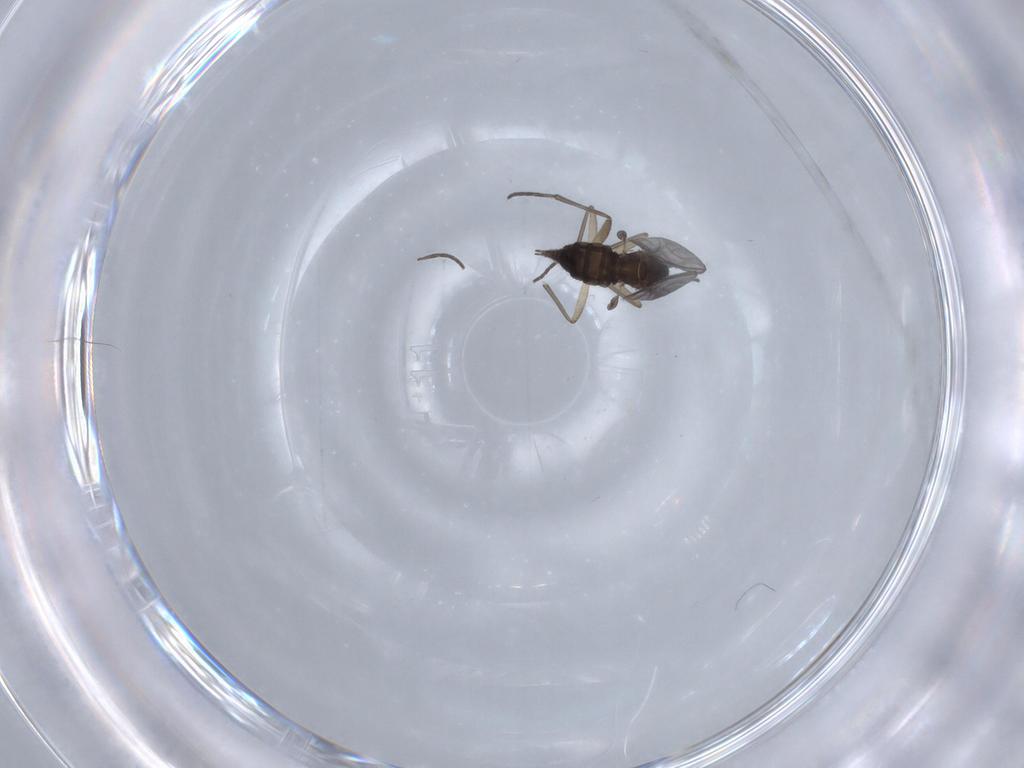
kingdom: Animalia
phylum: Arthropoda
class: Insecta
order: Diptera
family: Sciaridae
